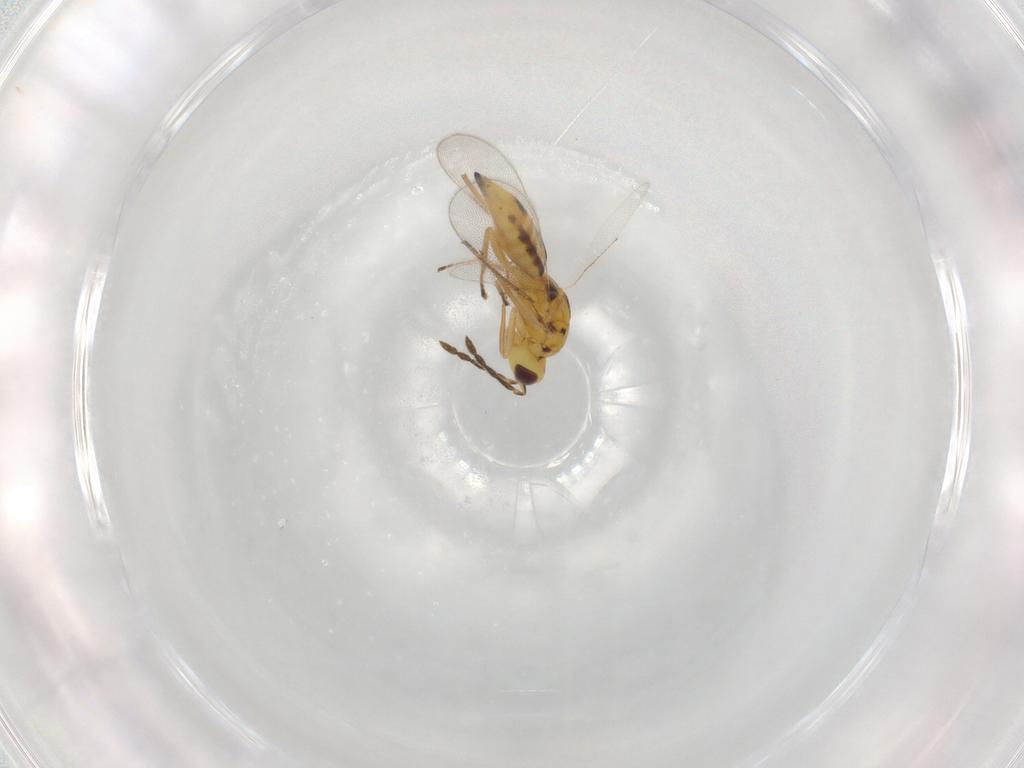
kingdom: Animalia
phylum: Arthropoda
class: Insecta
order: Hymenoptera
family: Eulophidae
